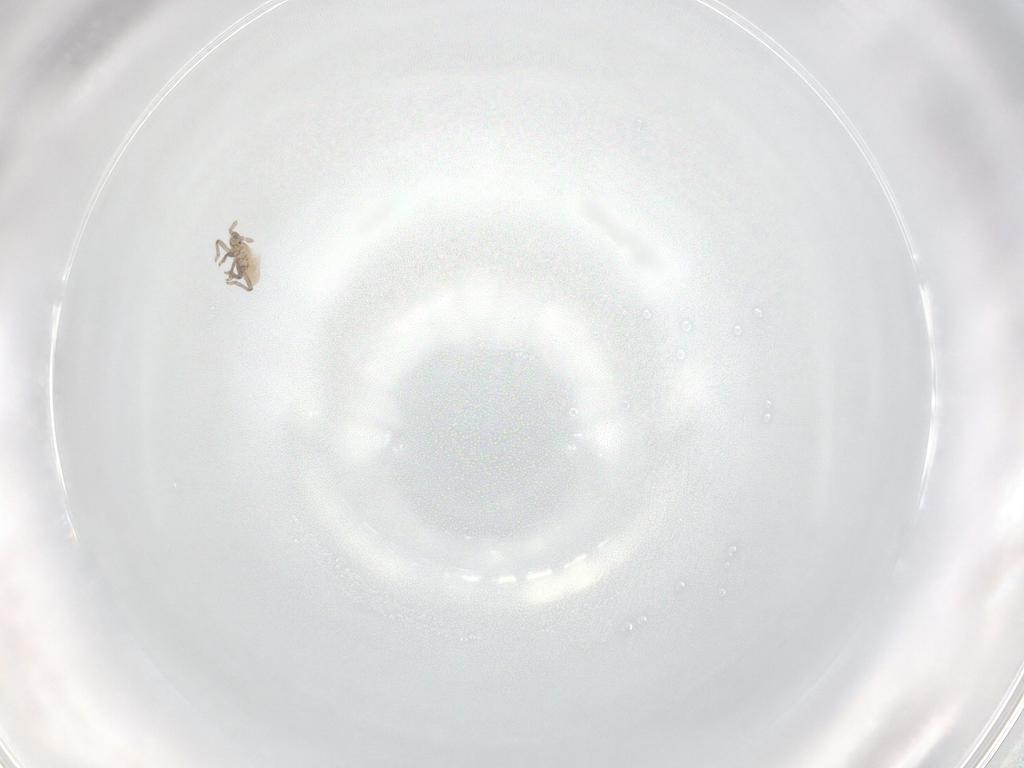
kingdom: Animalia
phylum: Arthropoda
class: Insecta
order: Hemiptera
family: Aphididae
